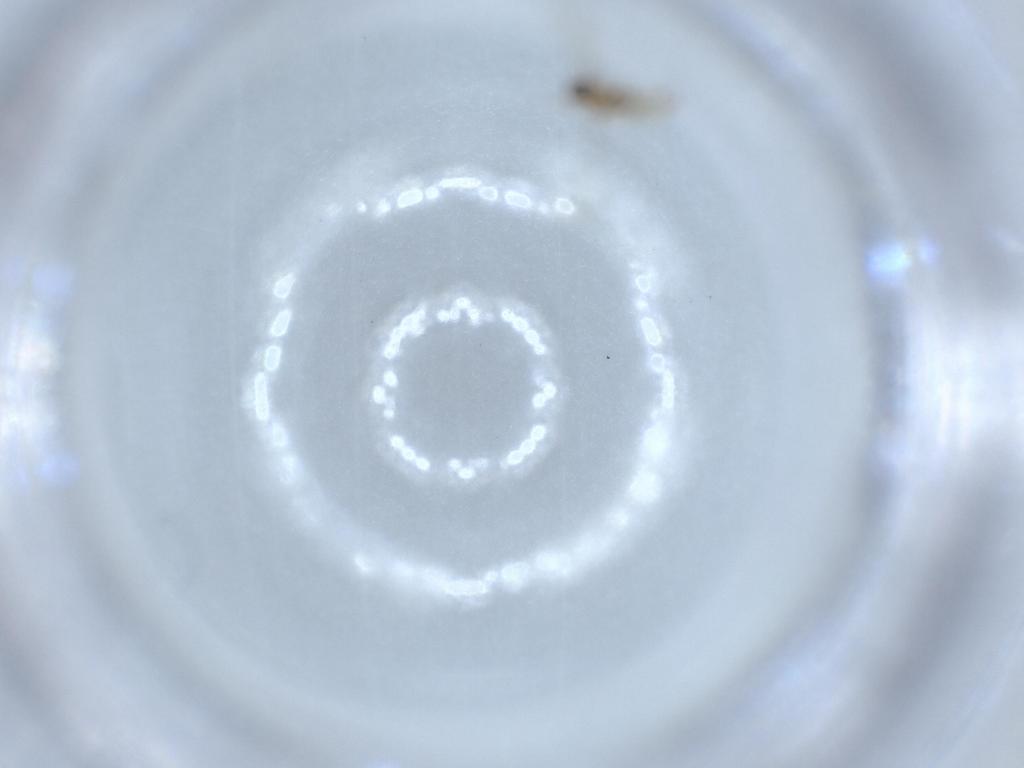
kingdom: Animalia
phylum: Arthropoda
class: Insecta
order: Diptera
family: Cecidomyiidae
